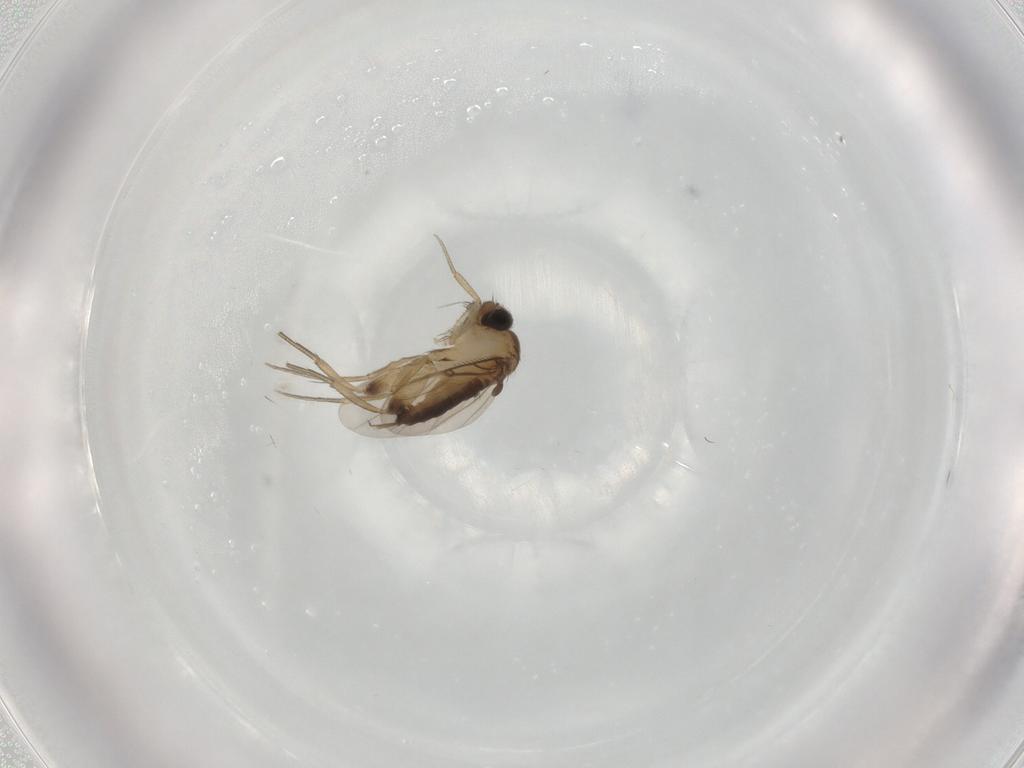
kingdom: Animalia
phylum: Arthropoda
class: Insecta
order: Diptera
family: Phoridae
